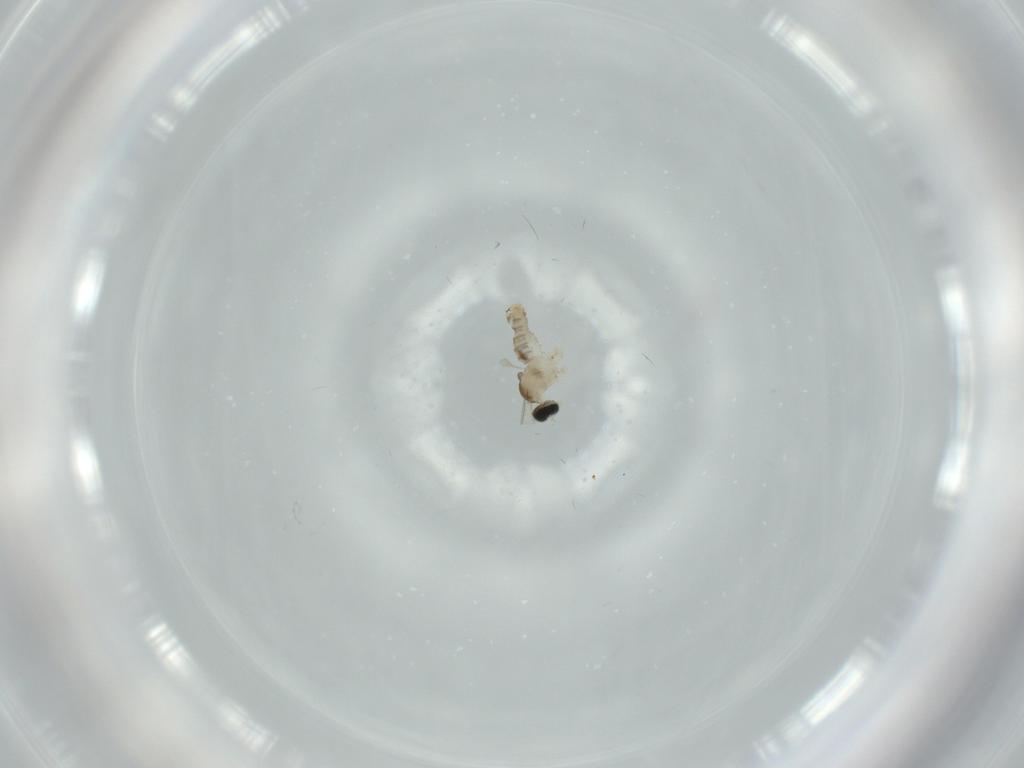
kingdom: Animalia
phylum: Arthropoda
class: Insecta
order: Diptera
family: Cecidomyiidae
